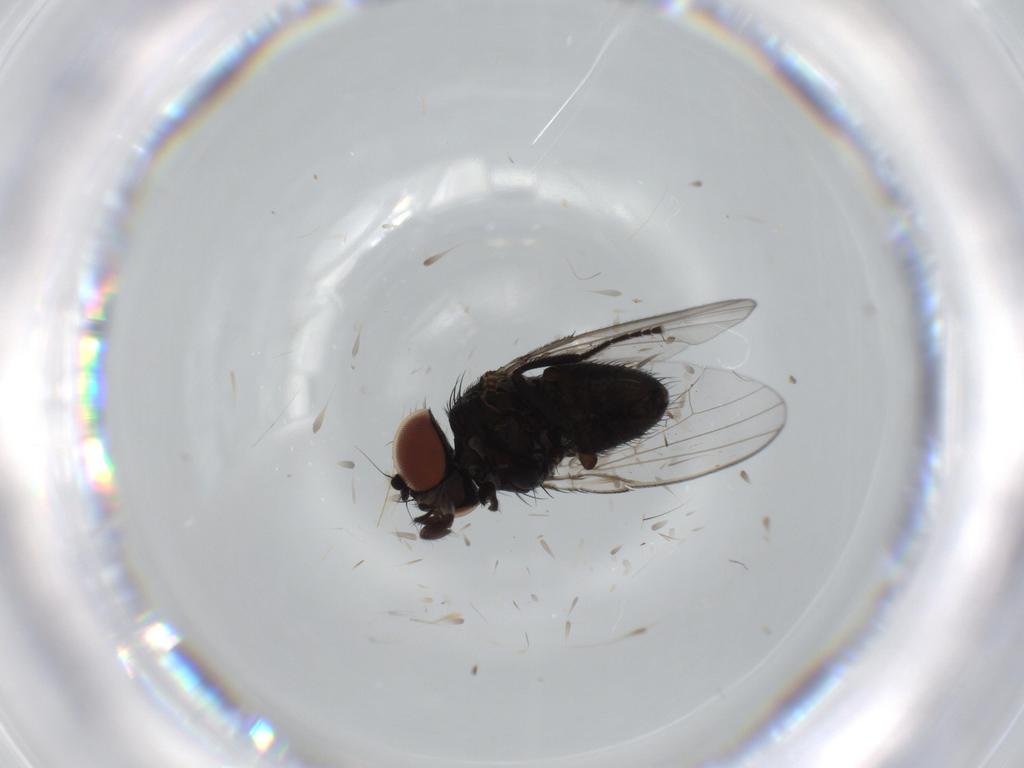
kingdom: Animalia
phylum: Arthropoda
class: Insecta
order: Diptera
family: Milichiidae
